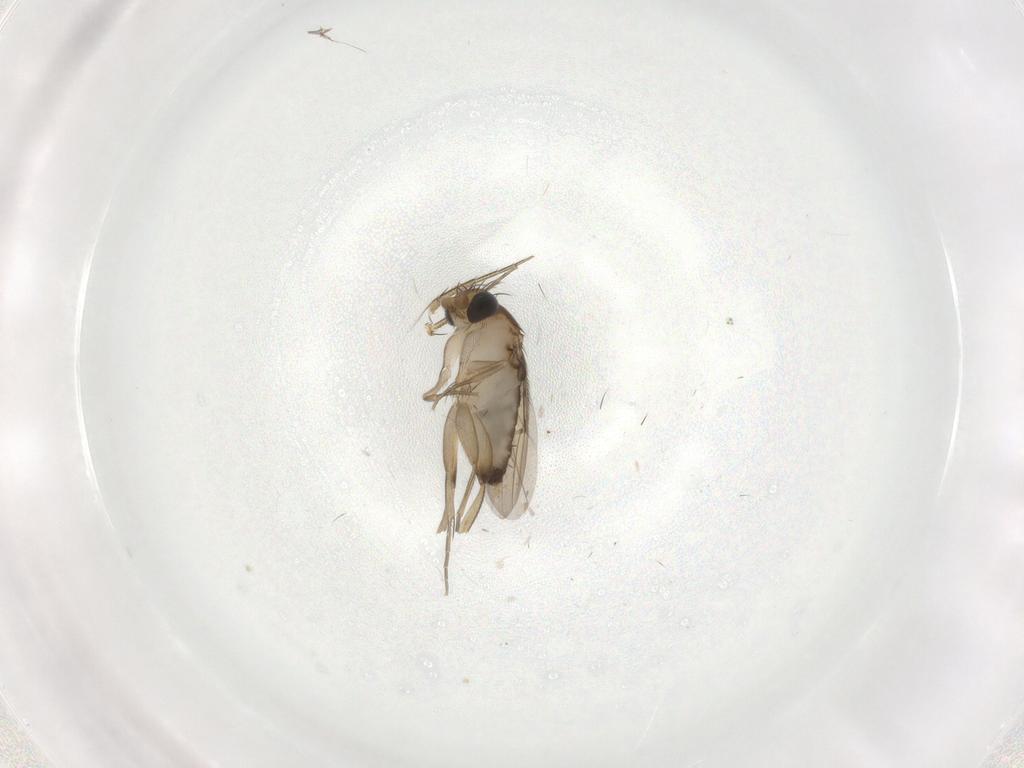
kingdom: Animalia
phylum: Arthropoda
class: Insecta
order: Diptera
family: Phoridae
